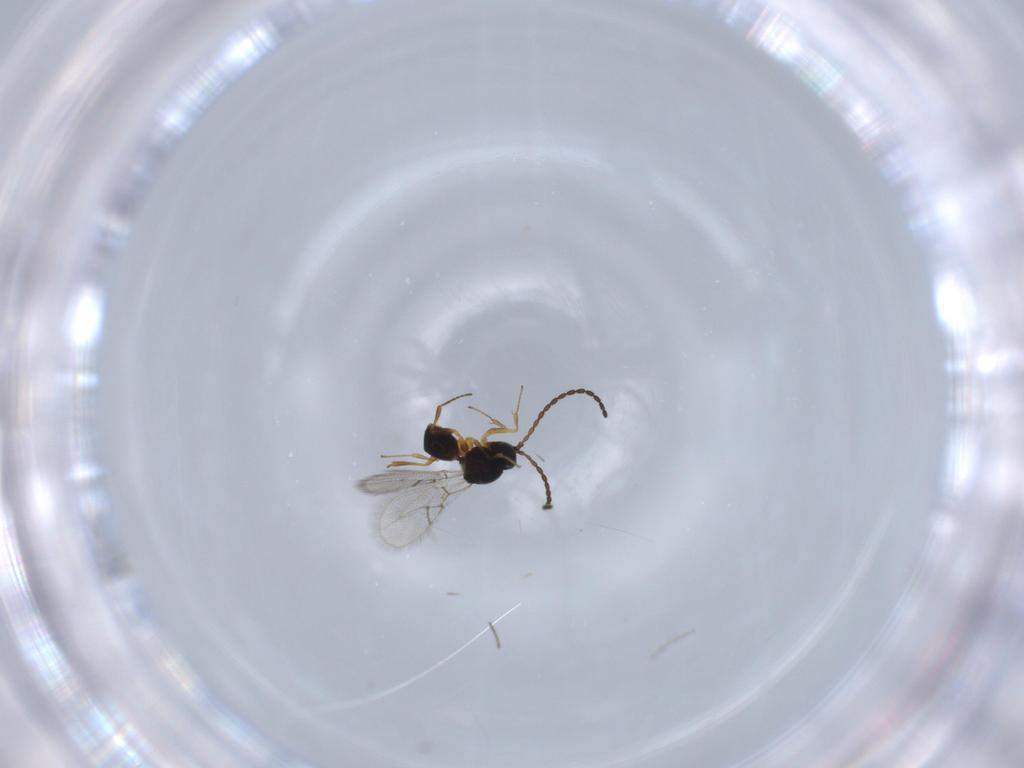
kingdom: Animalia
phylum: Arthropoda
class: Insecta
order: Hymenoptera
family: Figitidae
